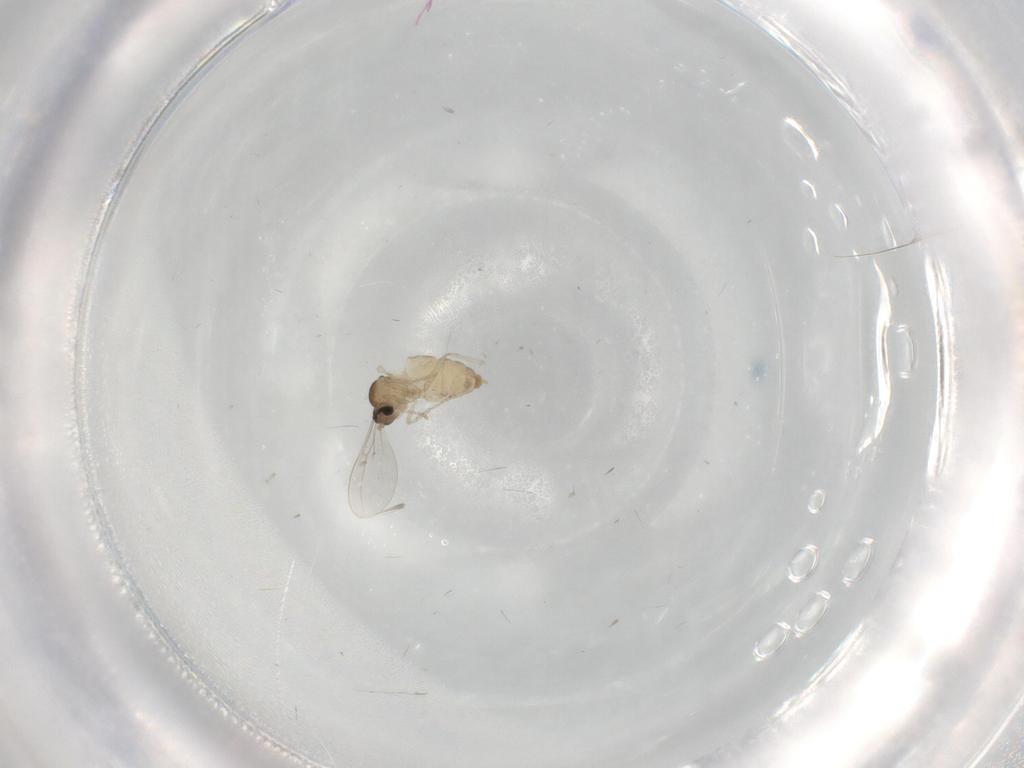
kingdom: Animalia
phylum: Arthropoda
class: Insecta
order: Diptera
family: Cecidomyiidae
